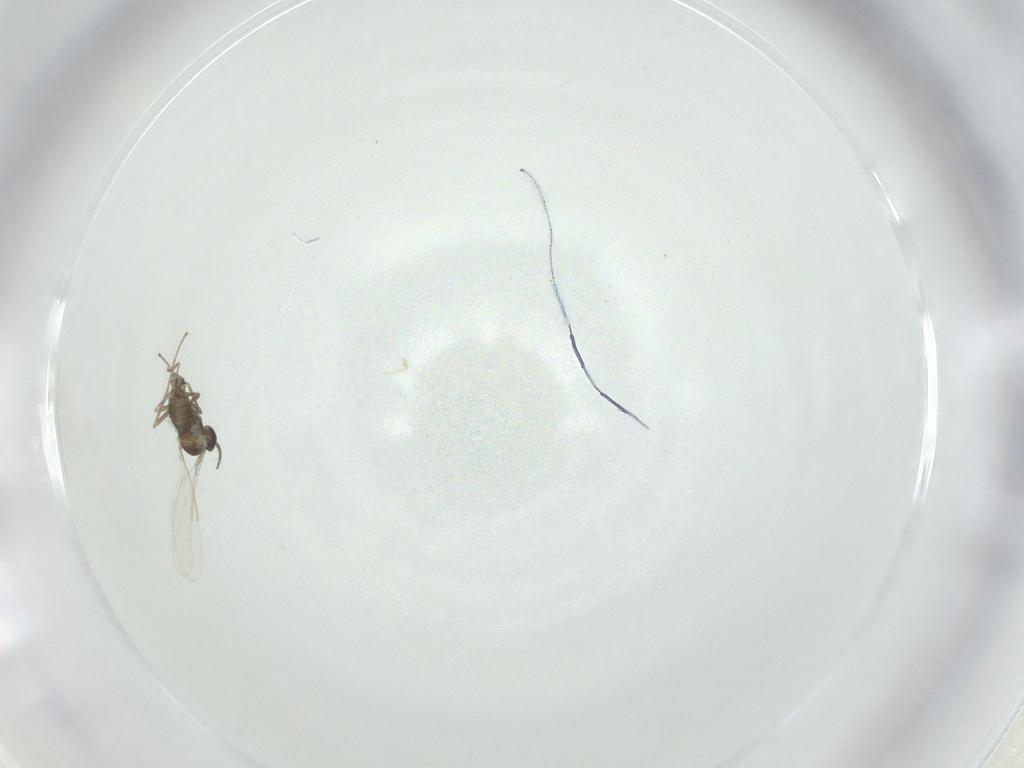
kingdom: Animalia
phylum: Arthropoda
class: Insecta
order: Diptera
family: Cecidomyiidae
